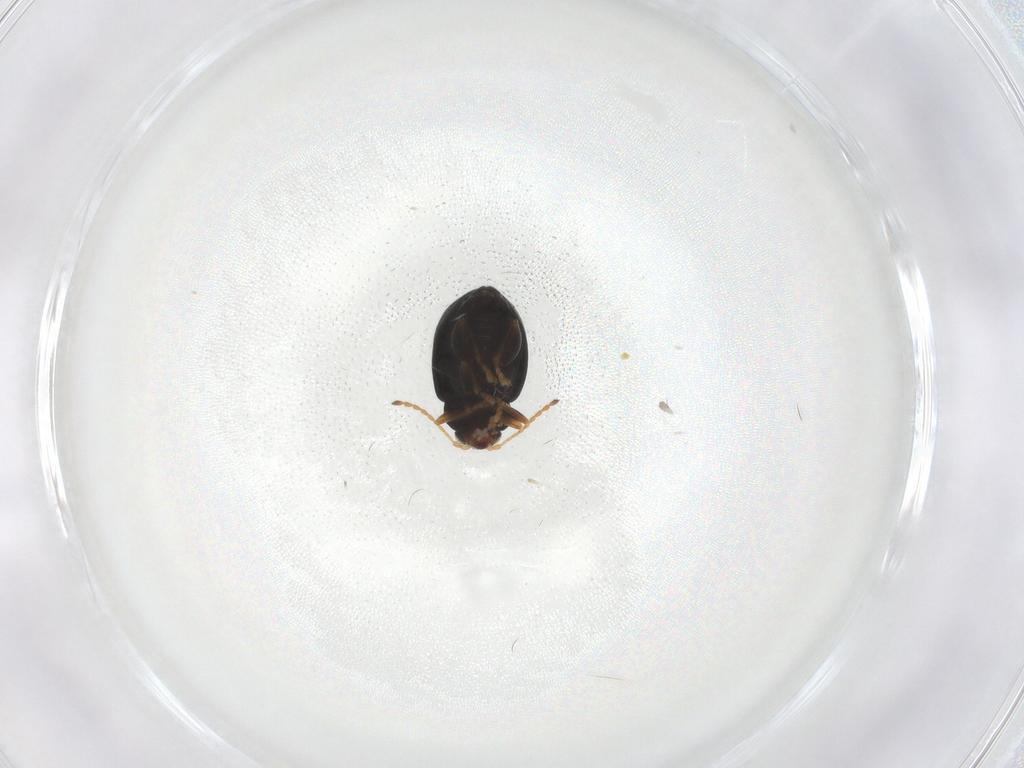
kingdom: Animalia
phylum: Arthropoda
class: Insecta
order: Coleoptera
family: Chrysomelidae
